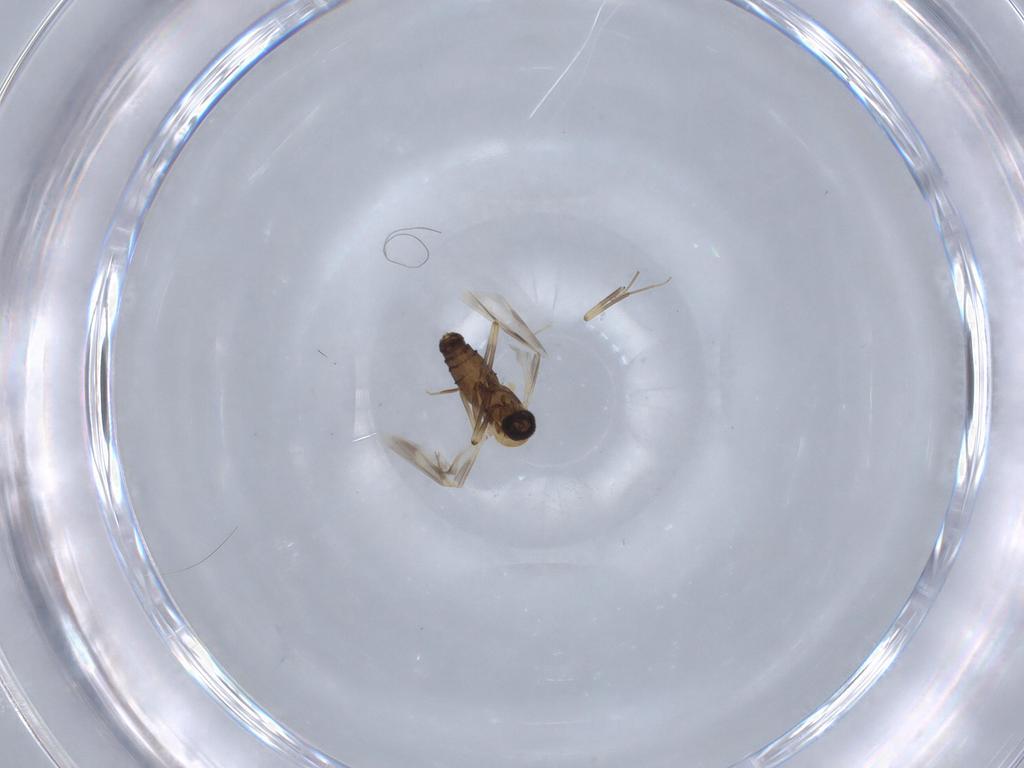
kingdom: Animalia
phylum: Arthropoda
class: Insecta
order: Diptera
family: Ceratopogonidae
